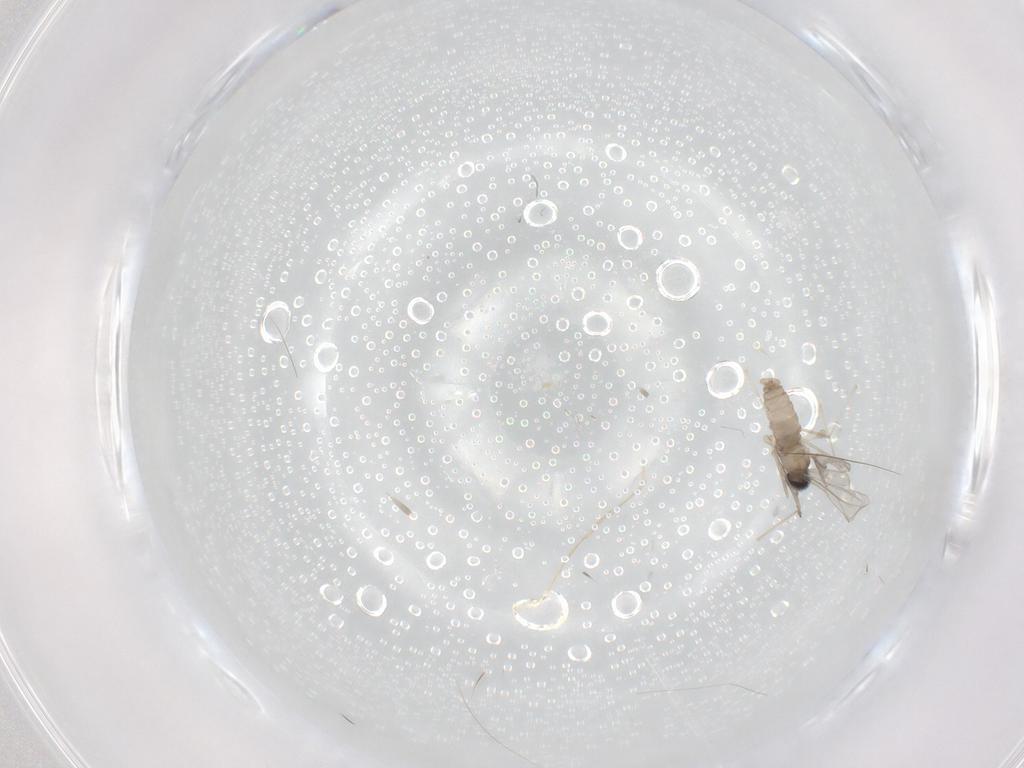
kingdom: Animalia
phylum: Arthropoda
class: Insecta
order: Diptera
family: Cecidomyiidae
